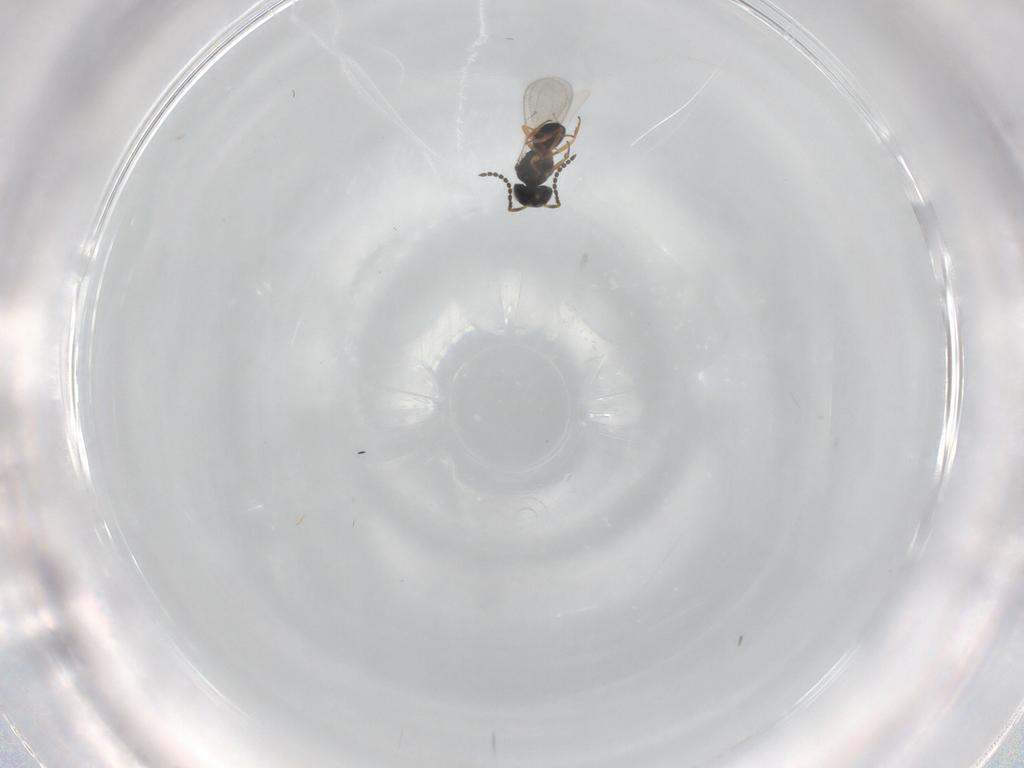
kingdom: Animalia
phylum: Arthropoda
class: Insecta
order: Hymenoptera
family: Scelionidae
